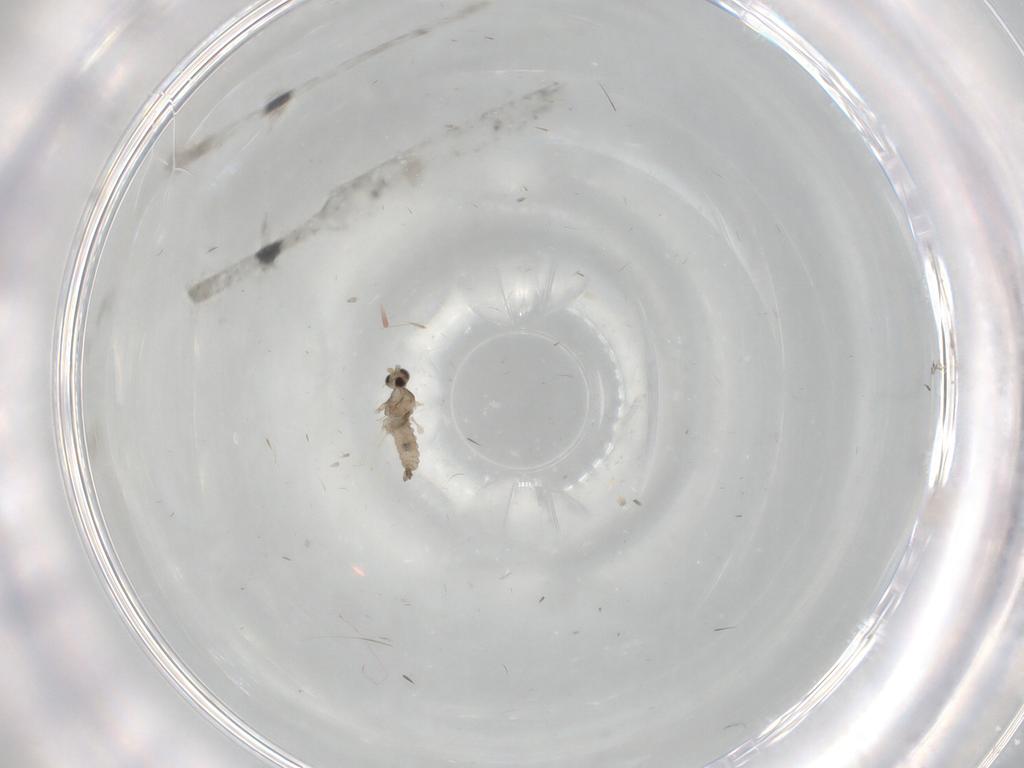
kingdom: Animalia
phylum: Arthropoda
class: Insecta
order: Diptera
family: Cecidomyiidae
